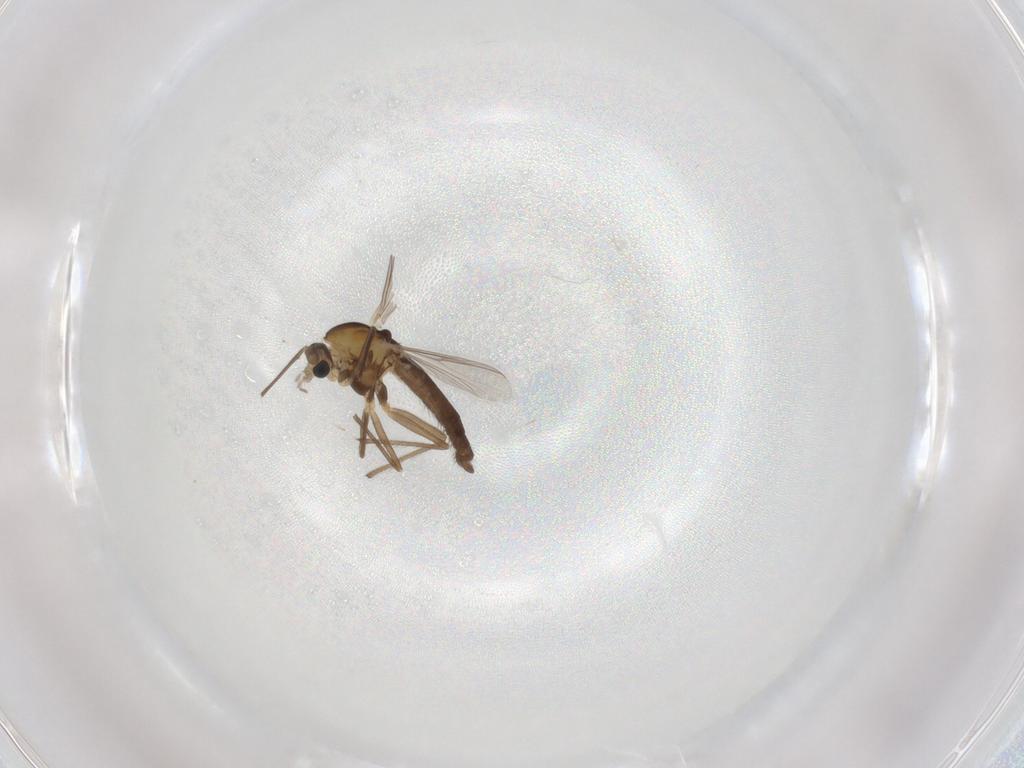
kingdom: Animalia
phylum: Arthropoda
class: Insecta
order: Diptera
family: Chironomidae
